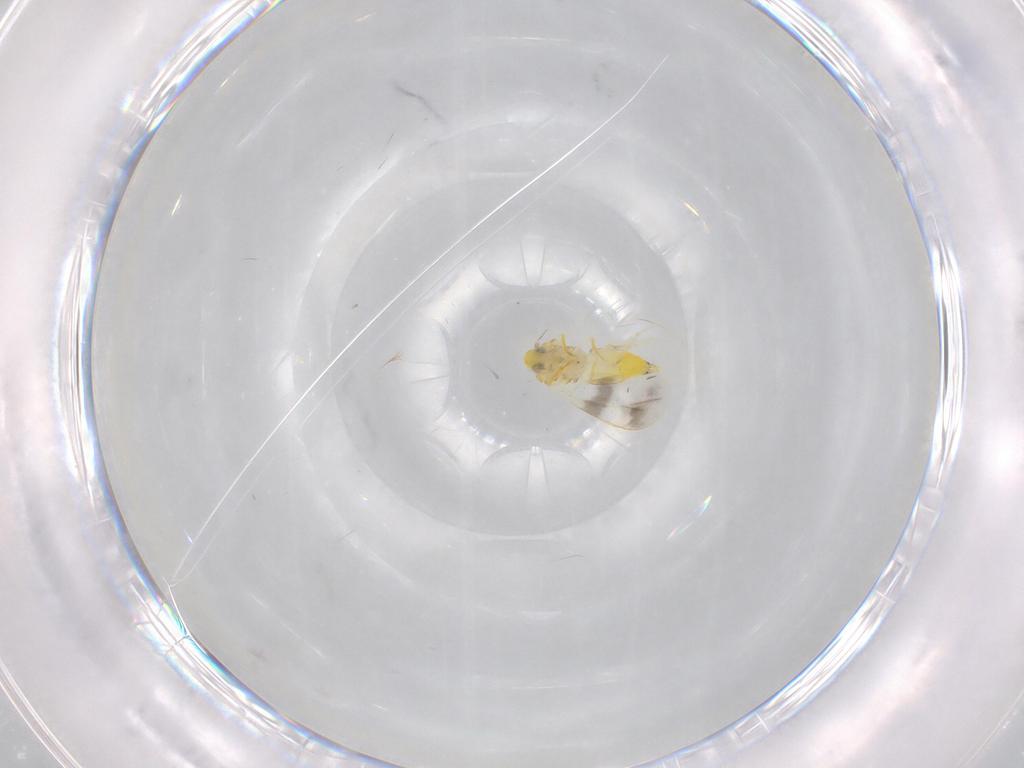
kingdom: Animalia
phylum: Arthropoda
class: Insecta
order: Hemiptera
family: Aleyrodidae
